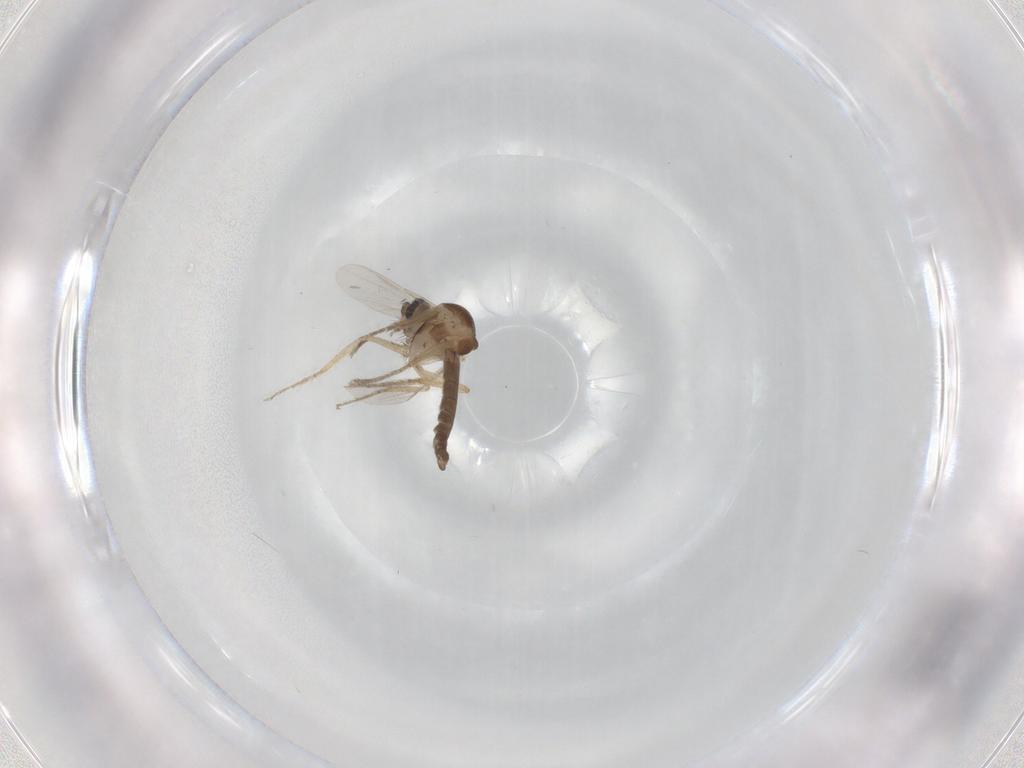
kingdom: Animalia
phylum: Arthropoda
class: Insecta
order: Diptera
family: Ceratopogonidae
